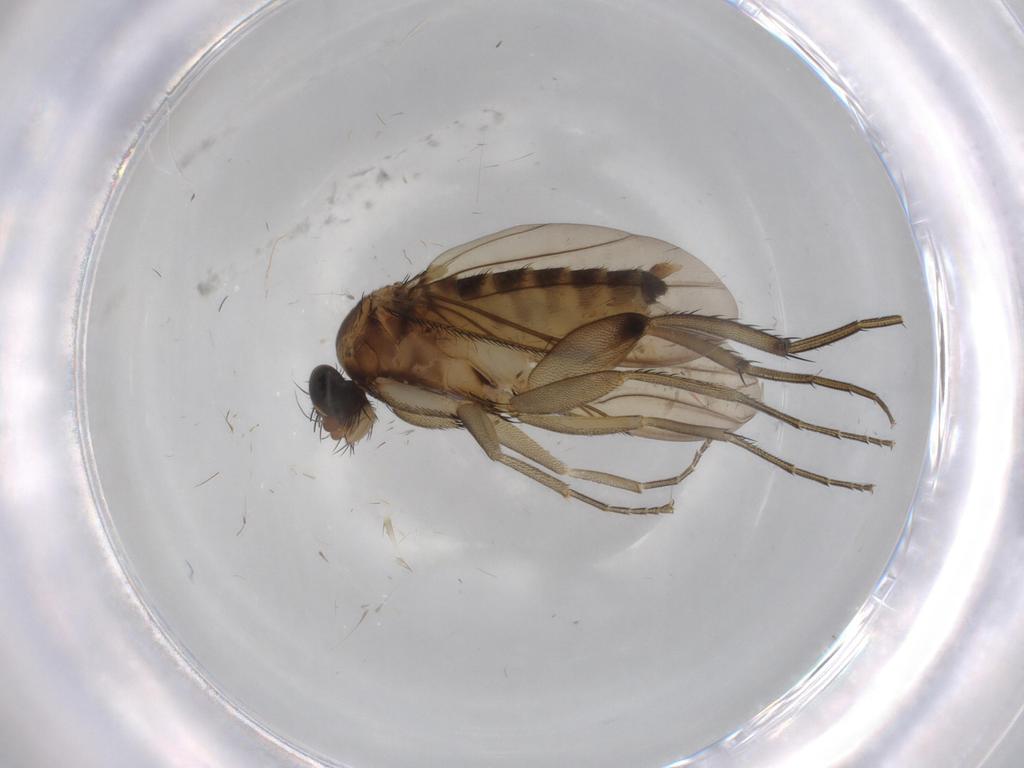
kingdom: Animalia
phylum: Arthropoda
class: Insecta
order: Diptera
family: Phoridae
